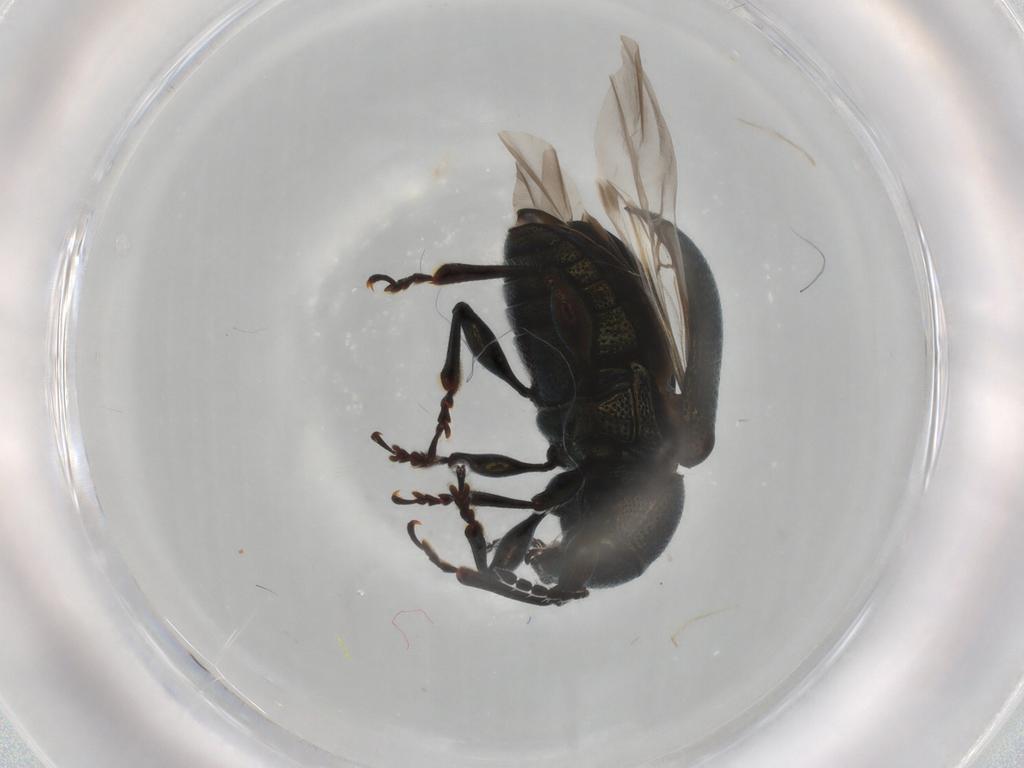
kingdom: Animalia
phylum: Arthropoda
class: Insecta
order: Coleoptera
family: Chrysomelidae
